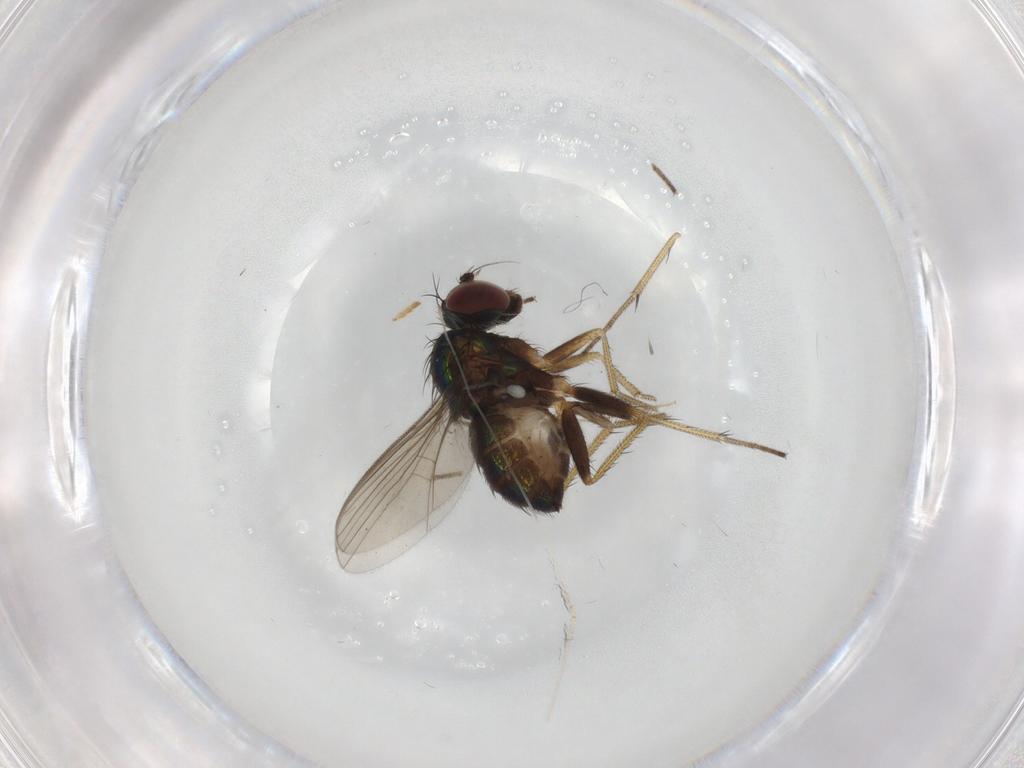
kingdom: Animalia
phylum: Arthropoda
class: Insecta
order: Diptera
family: Psychodidae
